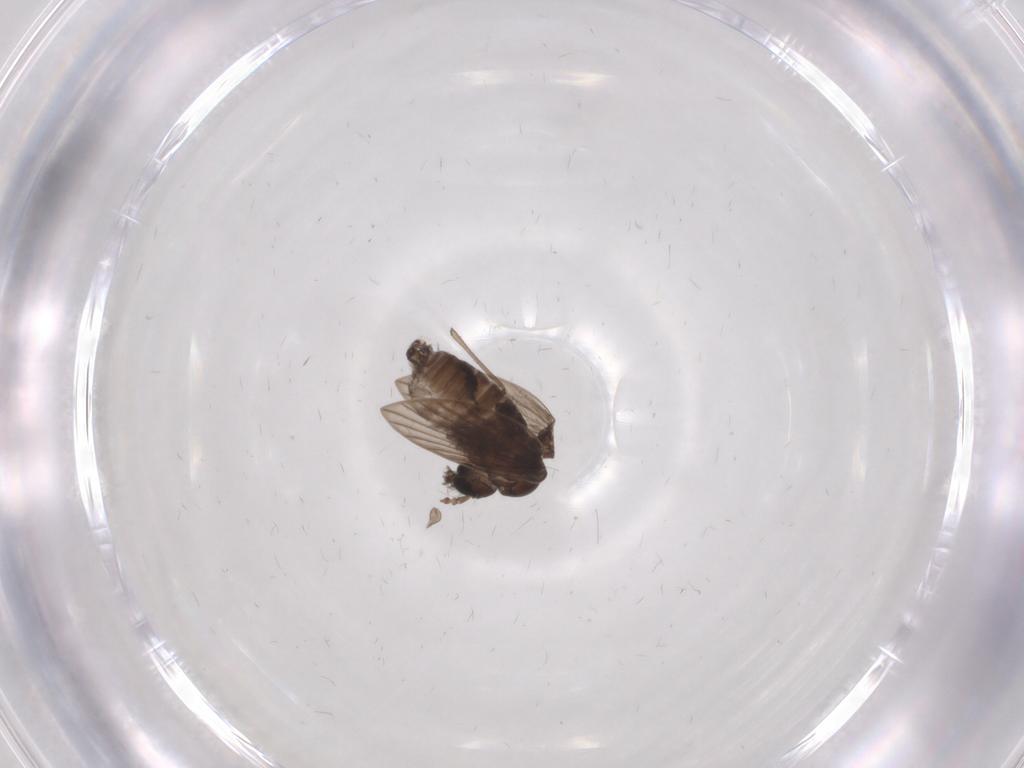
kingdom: Animalia
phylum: Arthropoda
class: Insecta
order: Diptera
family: Psychodidae
